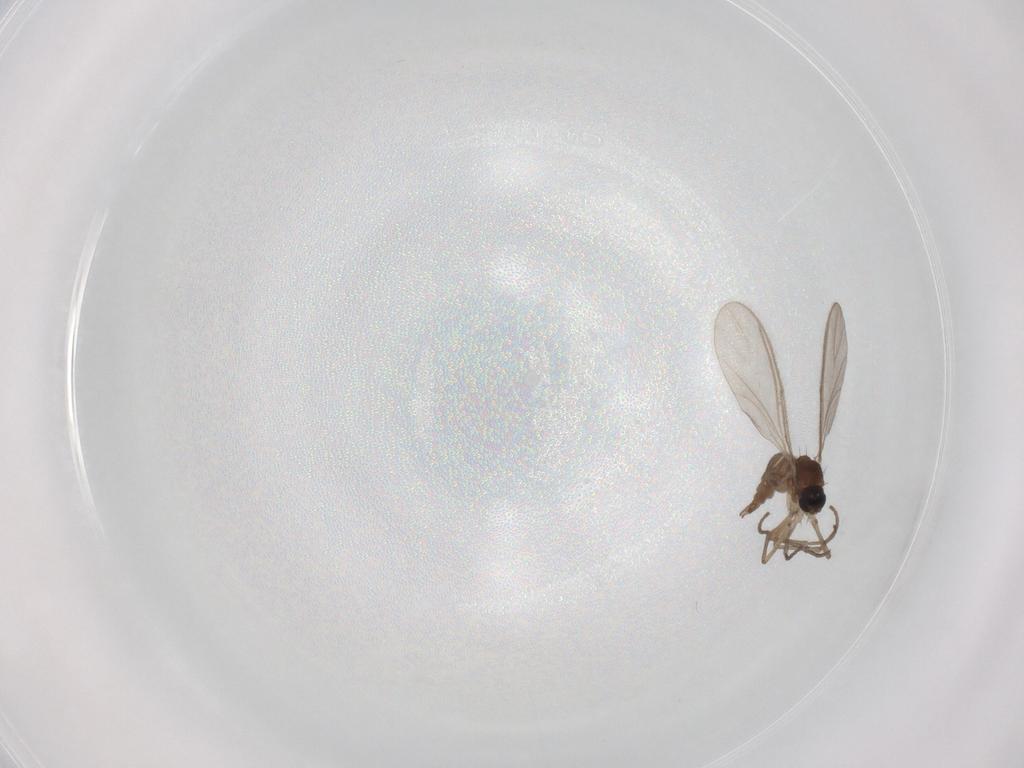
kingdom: Animalia
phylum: Arthropoda
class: Insecta
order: Diptera
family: Sciaridae
